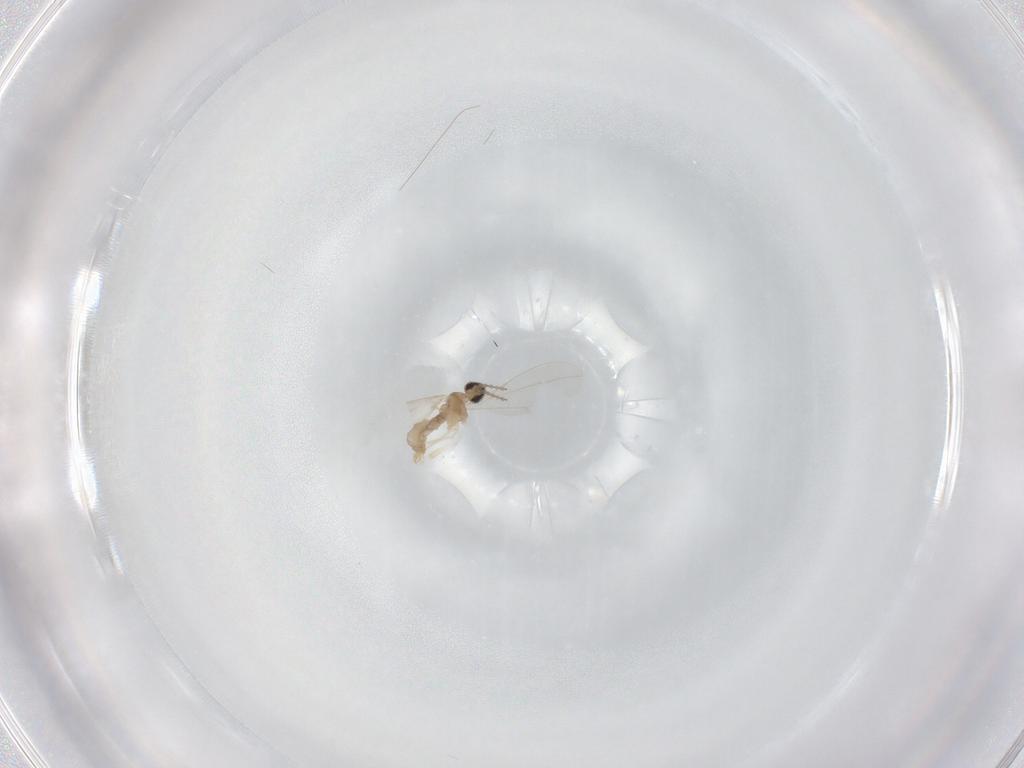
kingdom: Animalia
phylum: Arthropoda
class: Insecta
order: Diptera
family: Cecidomyiidae
